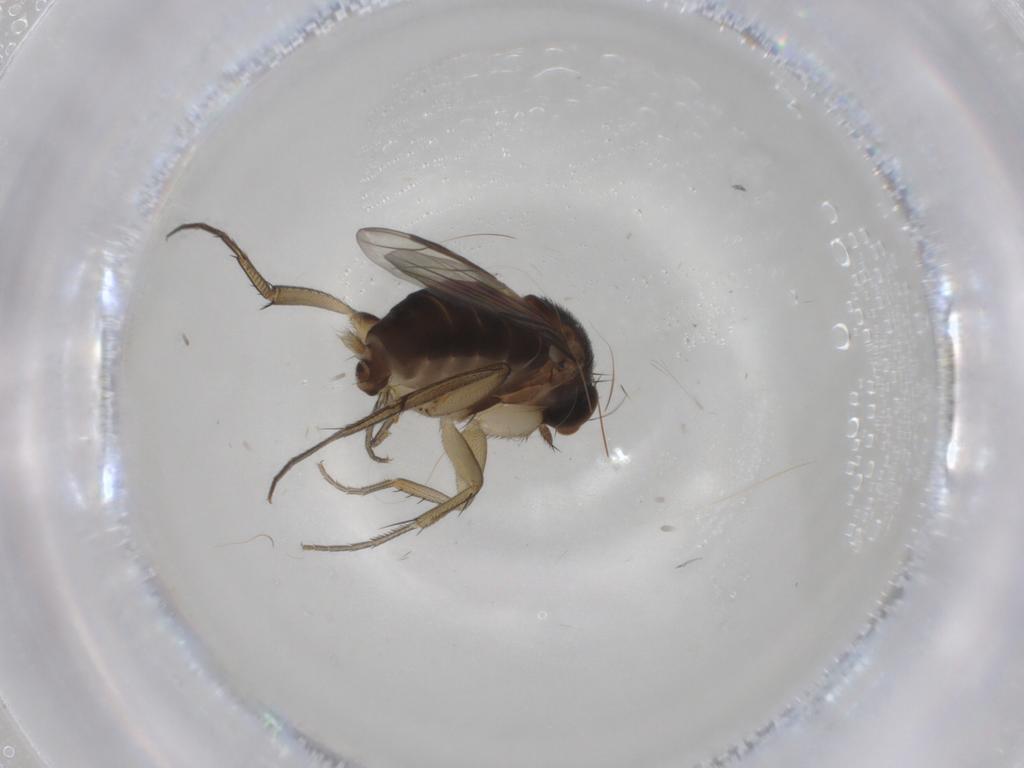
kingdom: Animalia
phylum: Arthropoda
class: Insecta
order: Diptera
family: Phoridae
